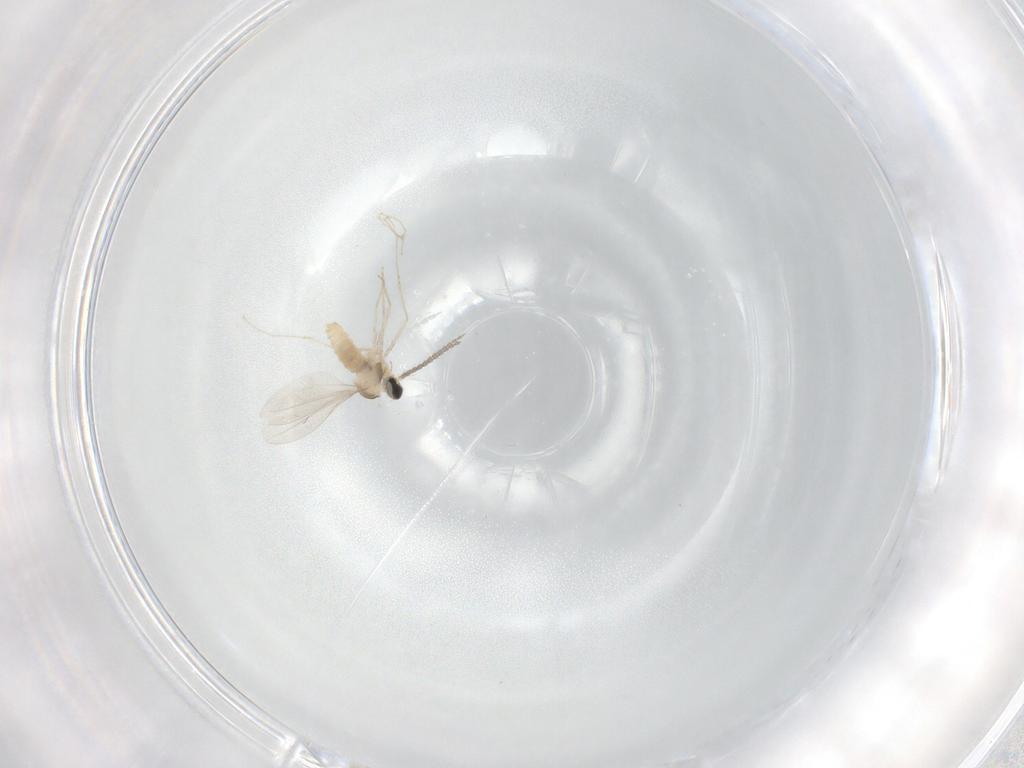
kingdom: Animalia
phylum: Arthropoda
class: Insecta
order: Diptera
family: Cecidomyiidae
